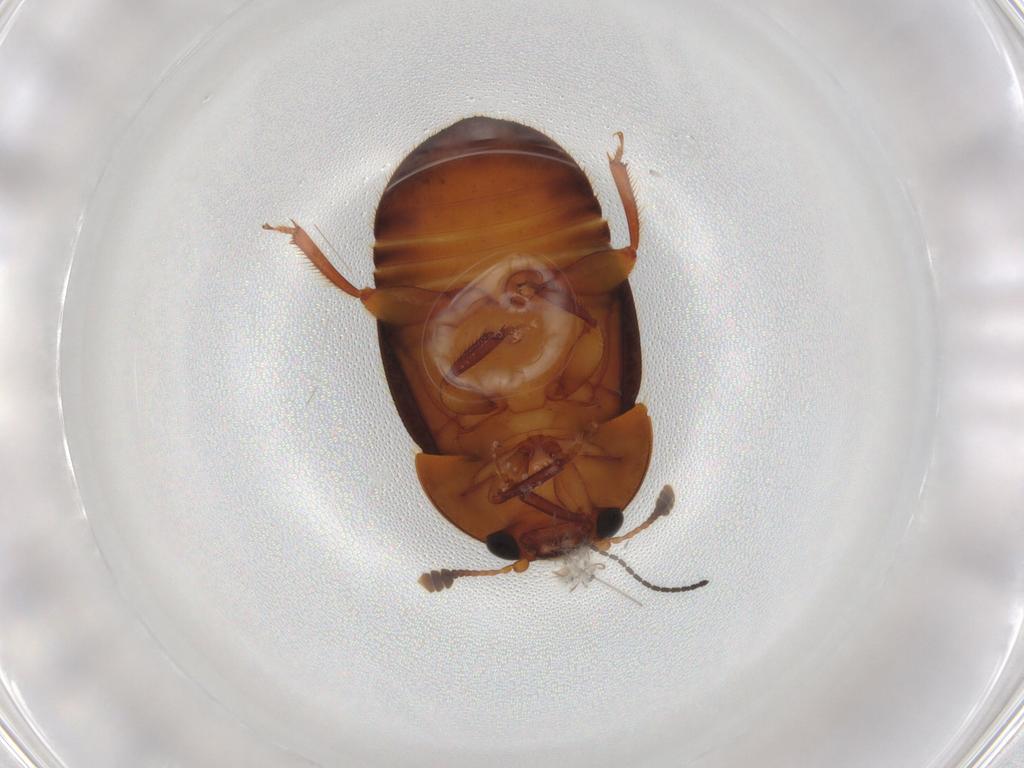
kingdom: Animalia
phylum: Arthropoda
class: Insecta
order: Coleoptera
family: Nitidulidae
